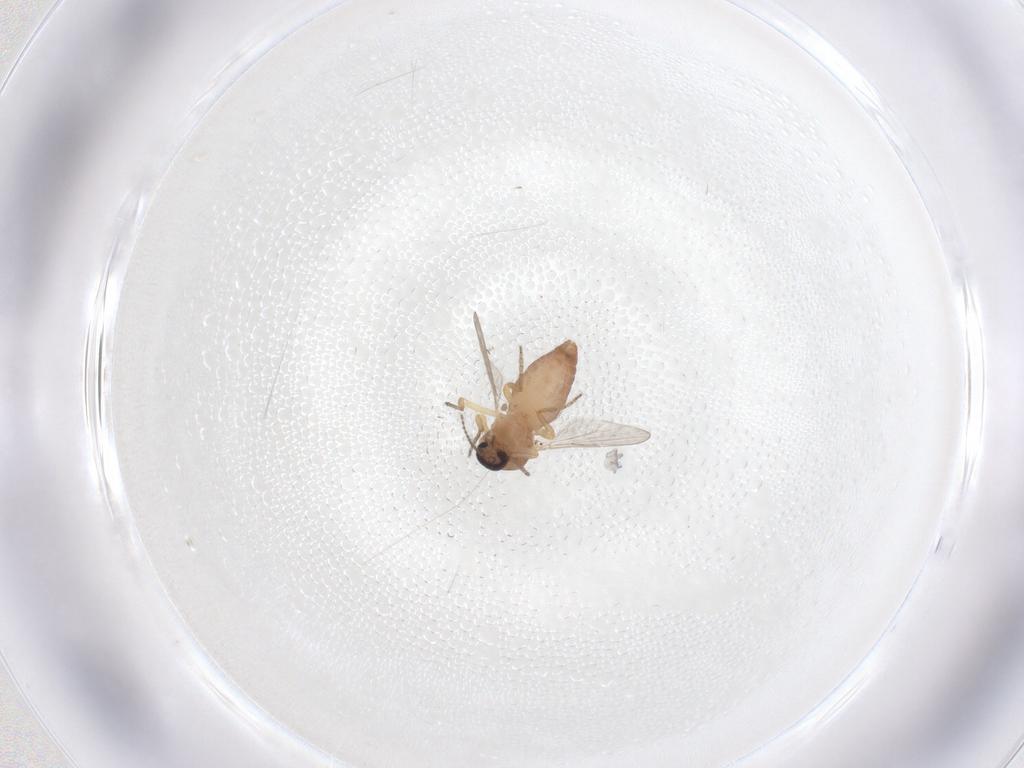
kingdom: Animalia
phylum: Arthropoda
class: Insecta
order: Diptera
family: Ceratopogonidae
